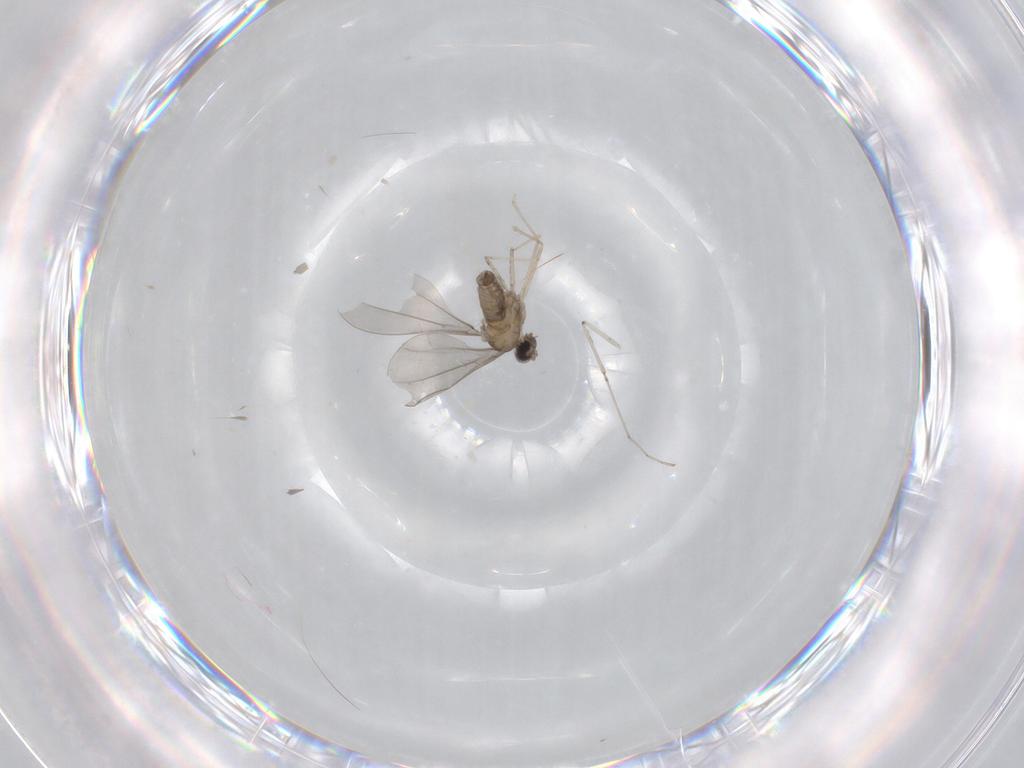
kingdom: Animalia
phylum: Arthropoda
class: Insecta
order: Diptera
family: Cecidomyiidae
